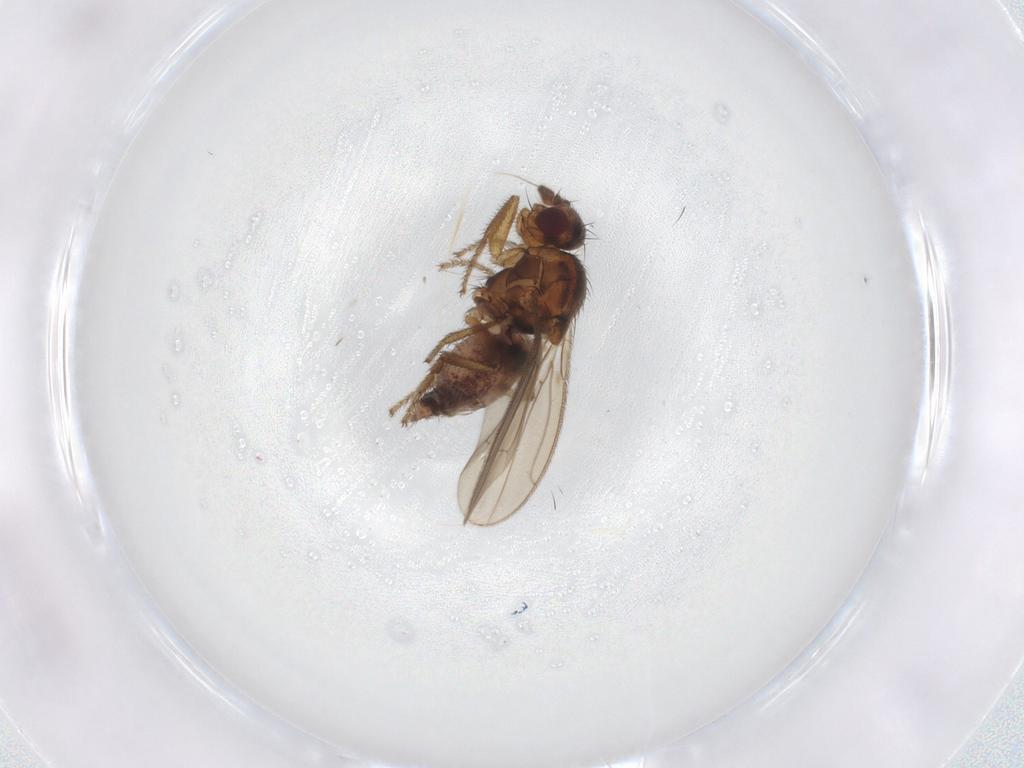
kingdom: Animalia
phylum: Arthropoda
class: Insecta
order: Diptera
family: Sphaeroceridae
